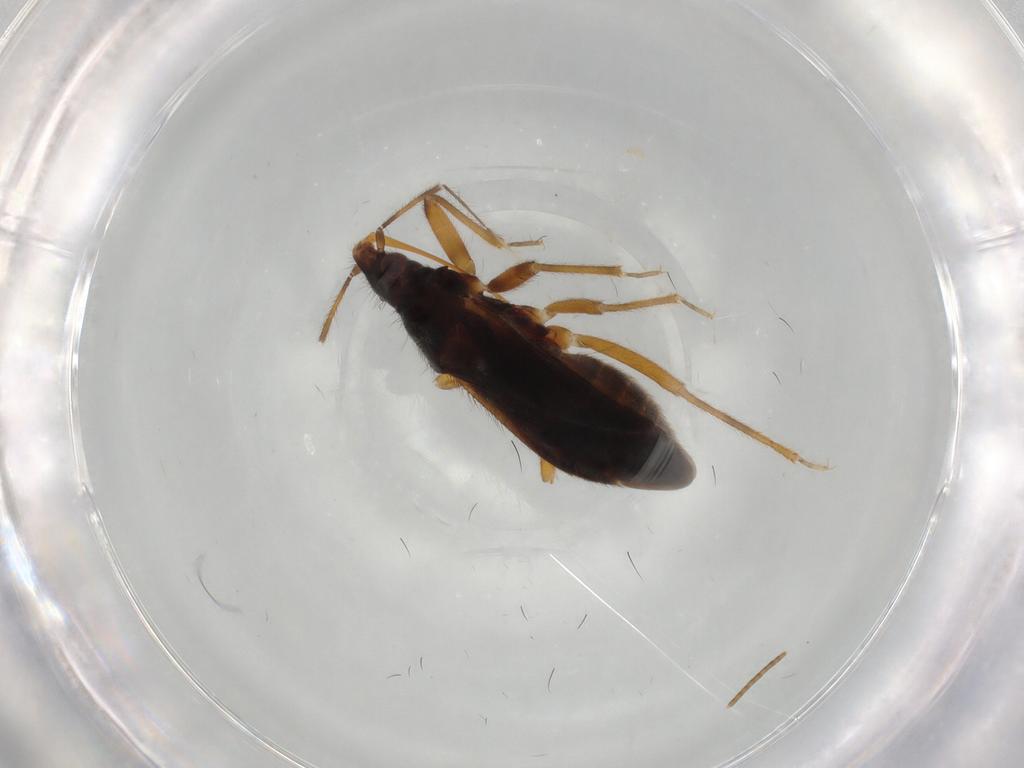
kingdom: Animalia
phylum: Arthropoda
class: Insecta
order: Hemiptera
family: Anthocoridae
